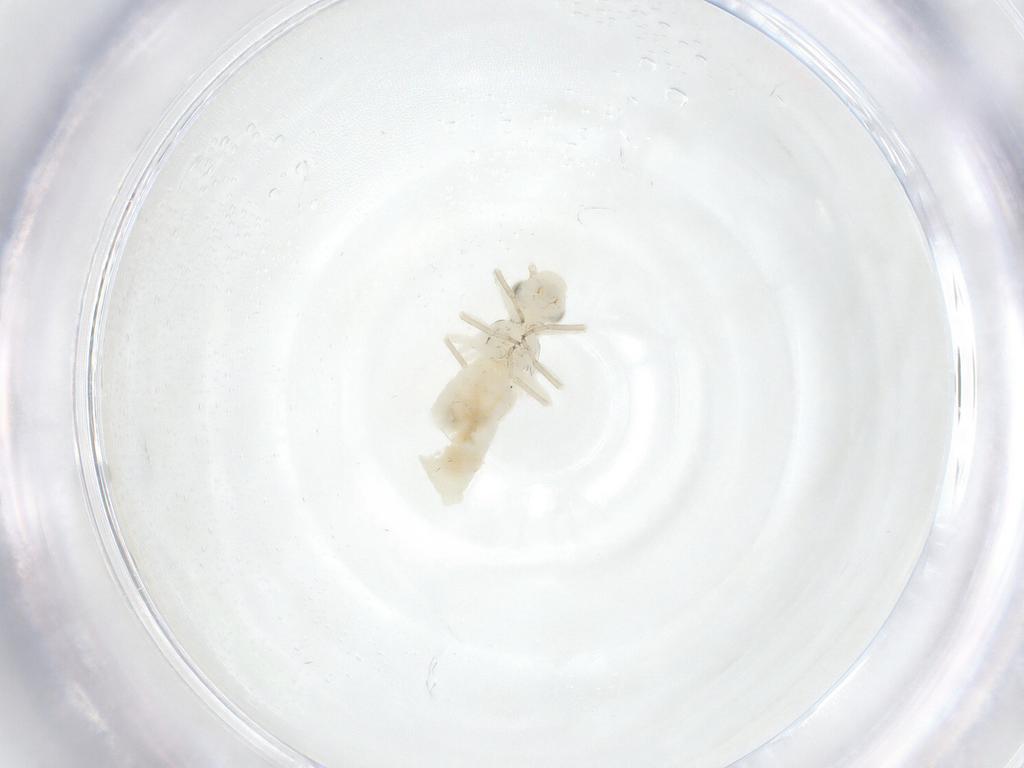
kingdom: Animalia
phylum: Arthropoda
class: Insecta
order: Psocodea
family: Caeciliusidae
